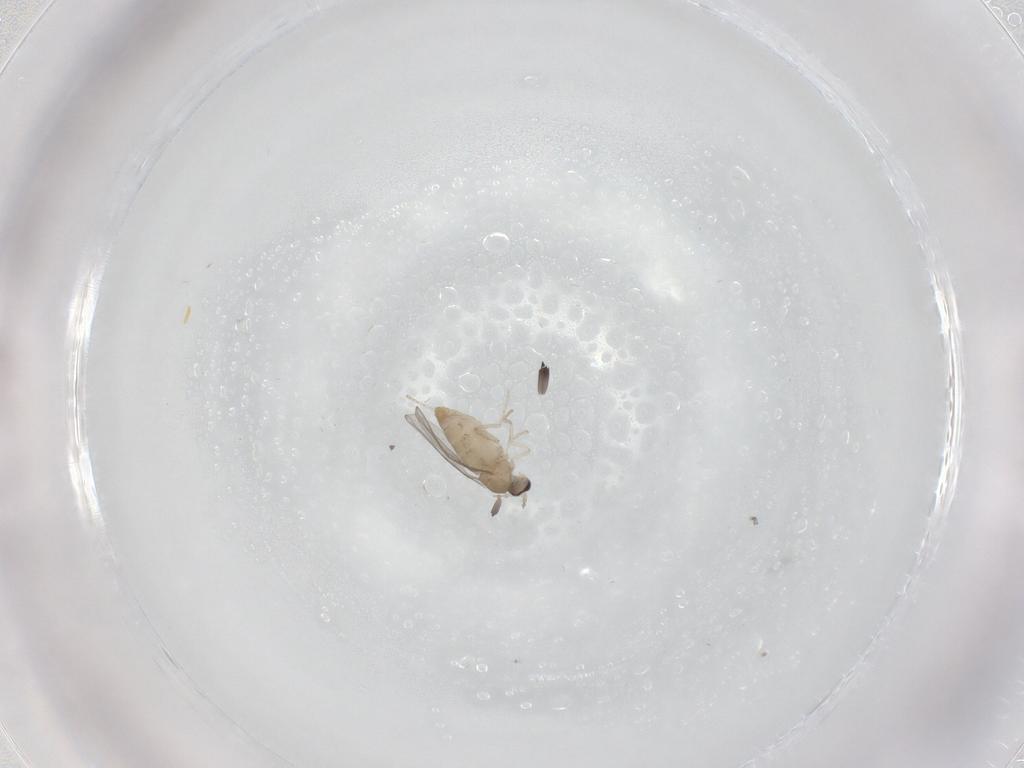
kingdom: Animalia
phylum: Arthropoda
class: Insecta
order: Diptera
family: Cecidomyiidae
